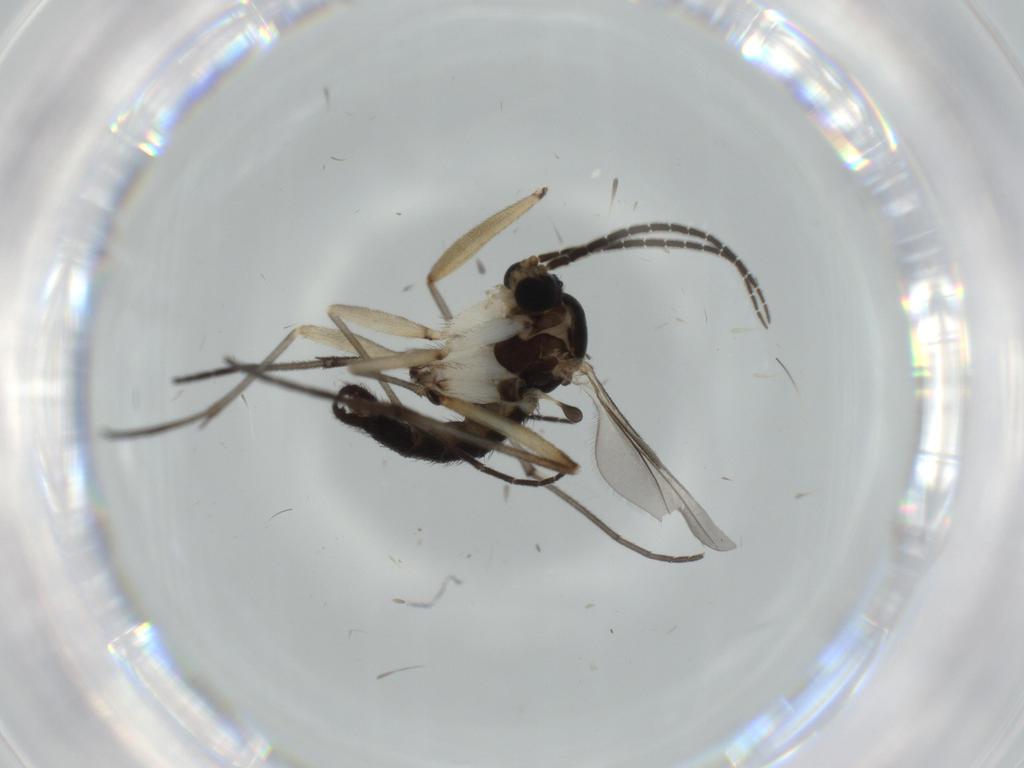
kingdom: Animalia
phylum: Arthropoda
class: Insecta
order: Diptera
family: Sciaridae
